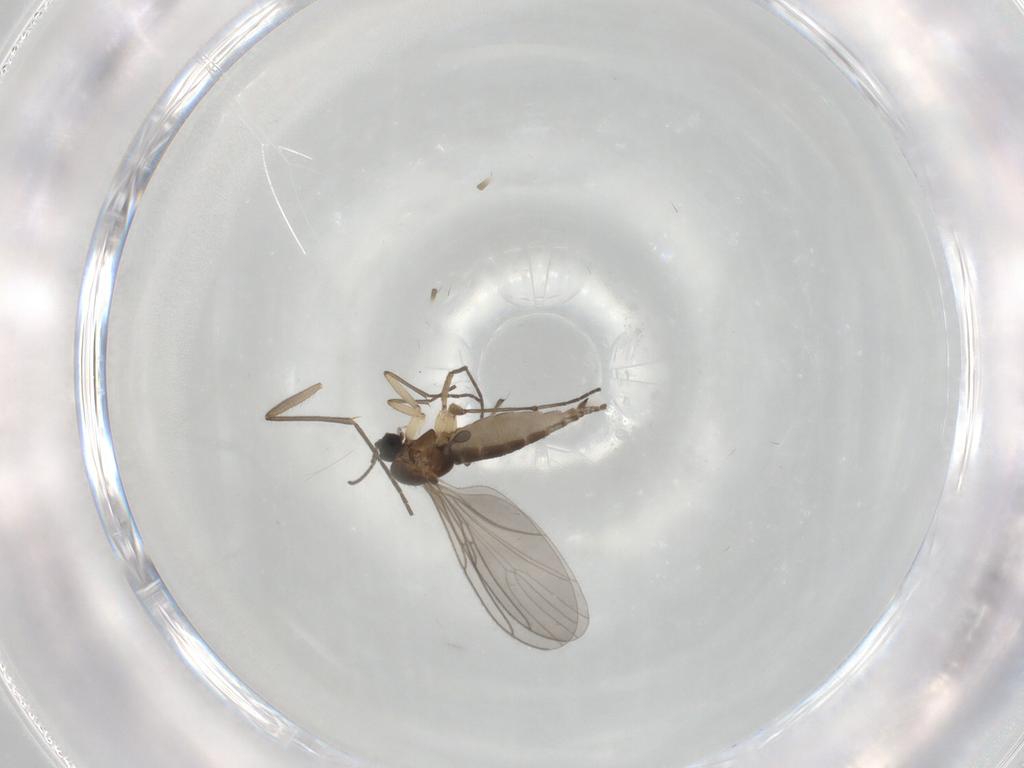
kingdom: Animalia
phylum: Arthropoda
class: Insecta
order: Diptera
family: Sciaridae
